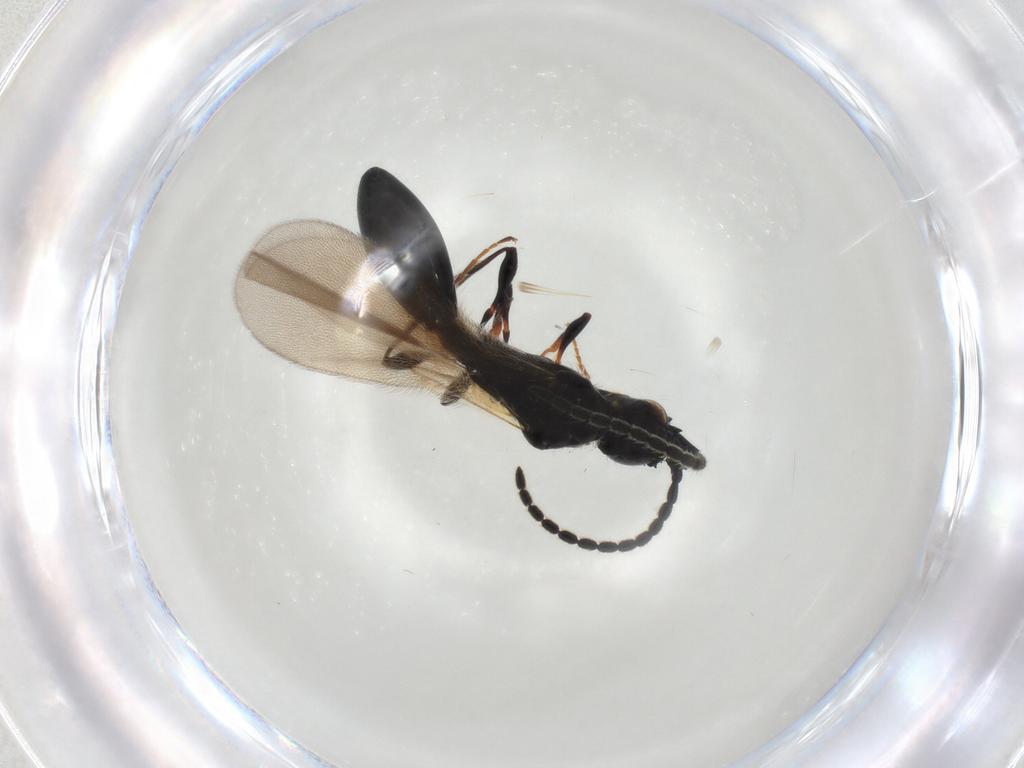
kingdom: Animalia
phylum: Arthropoda
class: Insecta
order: Hymenoptera
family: Diapriidae
